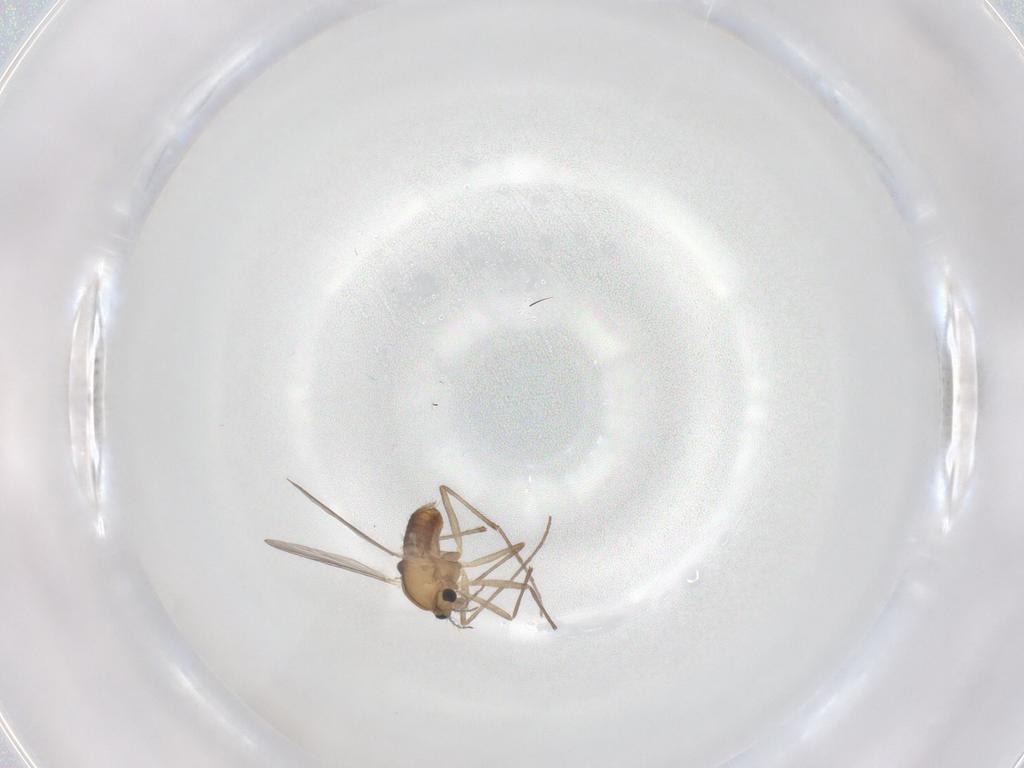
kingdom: Animalia
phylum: Arthropoda
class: Insecta
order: Diptera
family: Chironomidae
